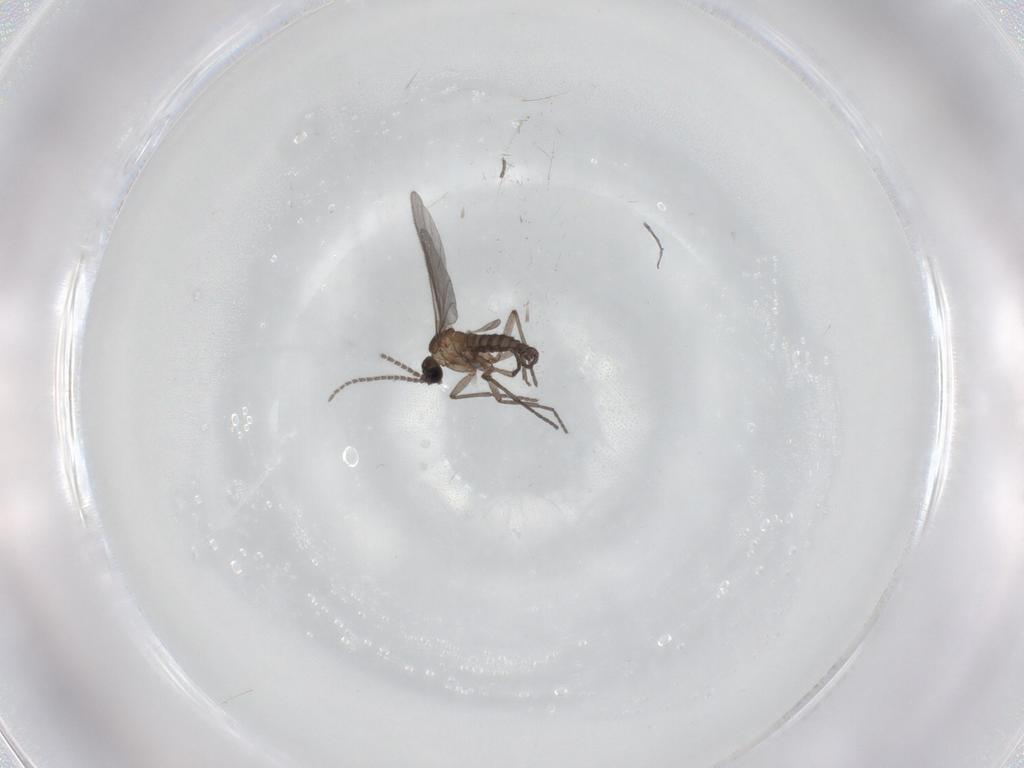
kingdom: Animalia
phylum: Arthropoda
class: Insecta
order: Diptera
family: Sciaridae
